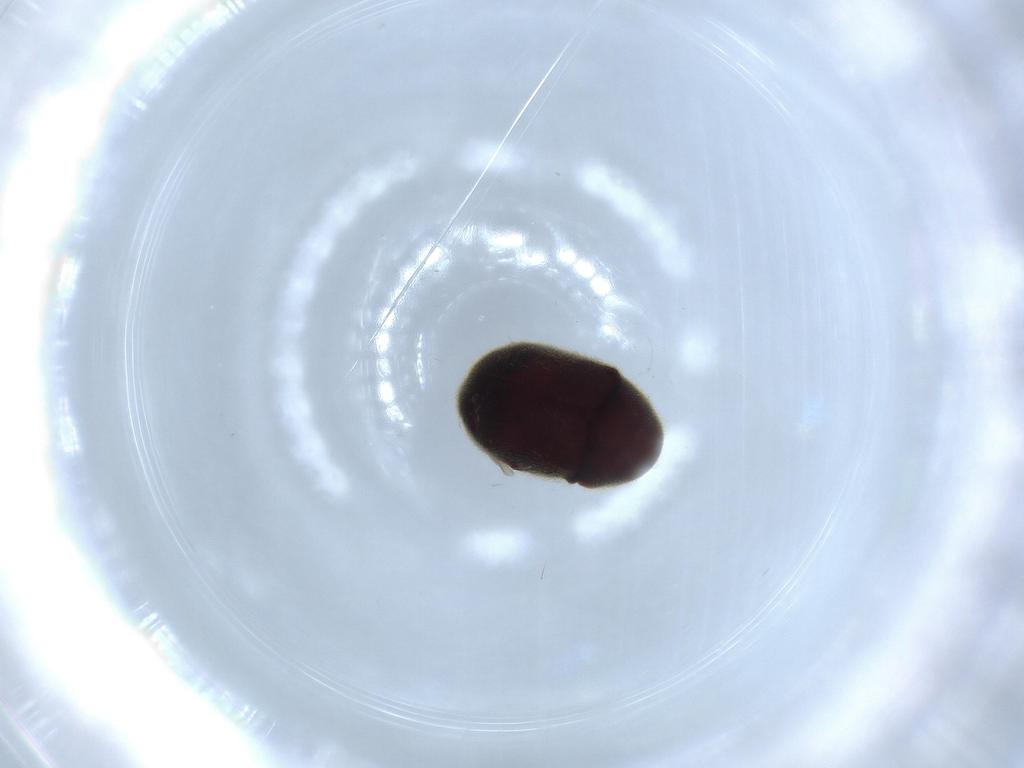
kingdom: Animalia
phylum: Arthropoda
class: Insecta
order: Coleoptera
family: Ptinidae
